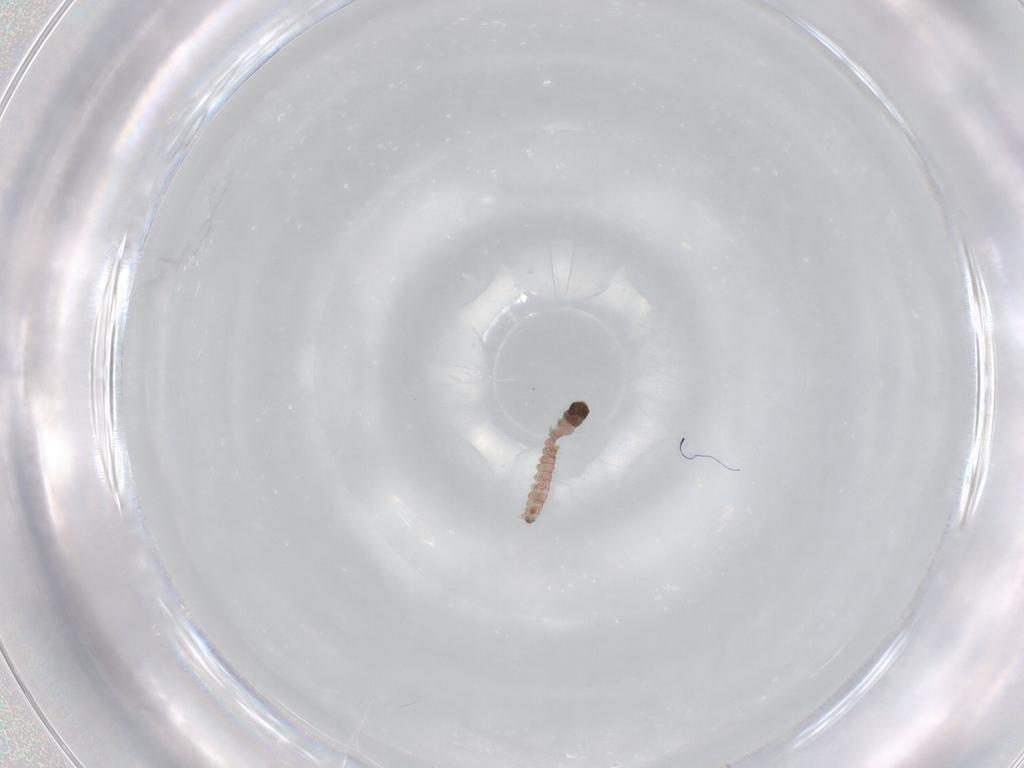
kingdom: Animalia
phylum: Arthropoda
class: Insecta
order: Lepidoptera
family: Gelechiidae
